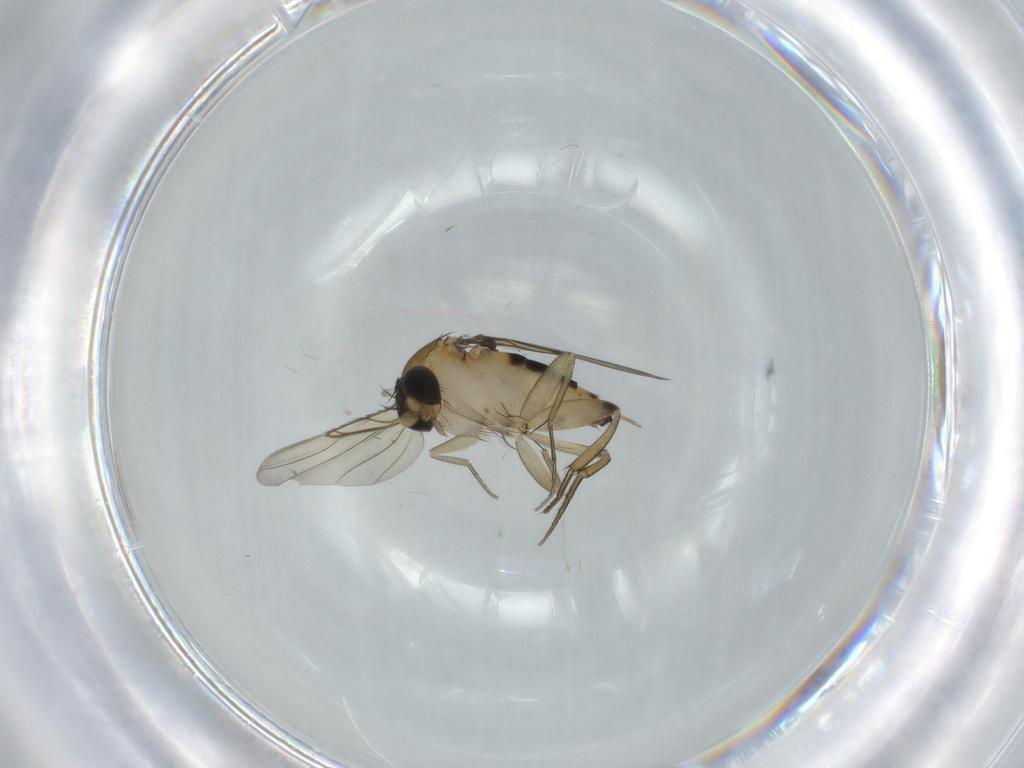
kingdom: Animalia
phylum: Arthropoda
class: Insecta
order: Diptera
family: Phoridae
